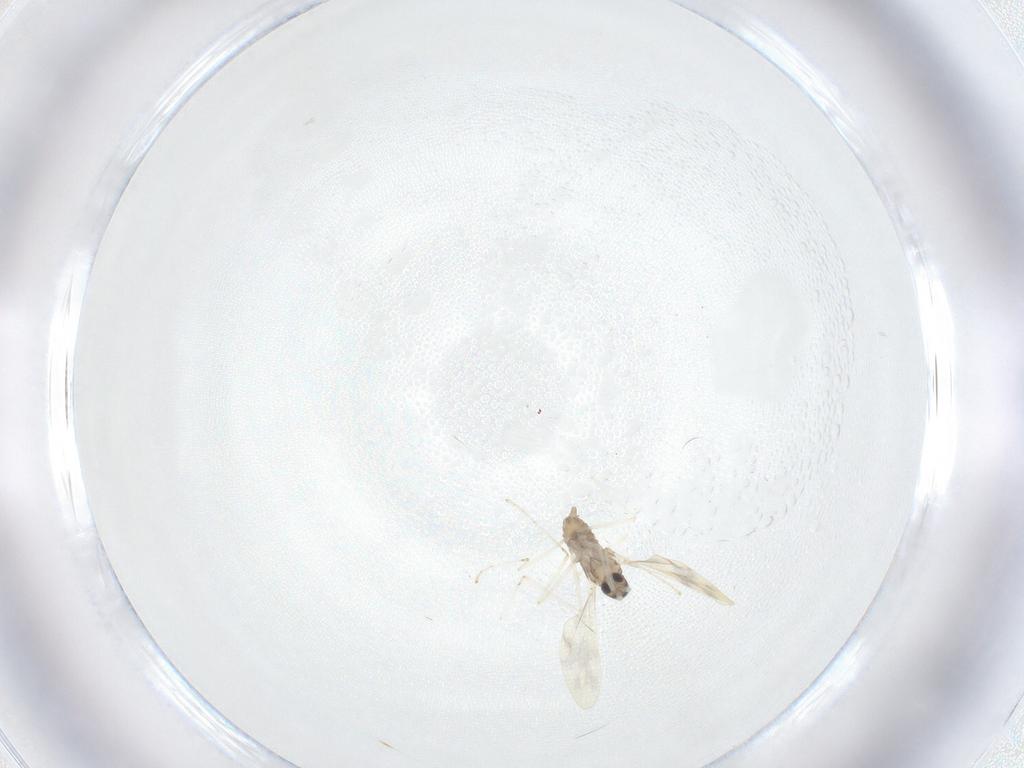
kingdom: Animalia
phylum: Arthropoda
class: Insecta
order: Diptera
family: Cecidomyiidae
